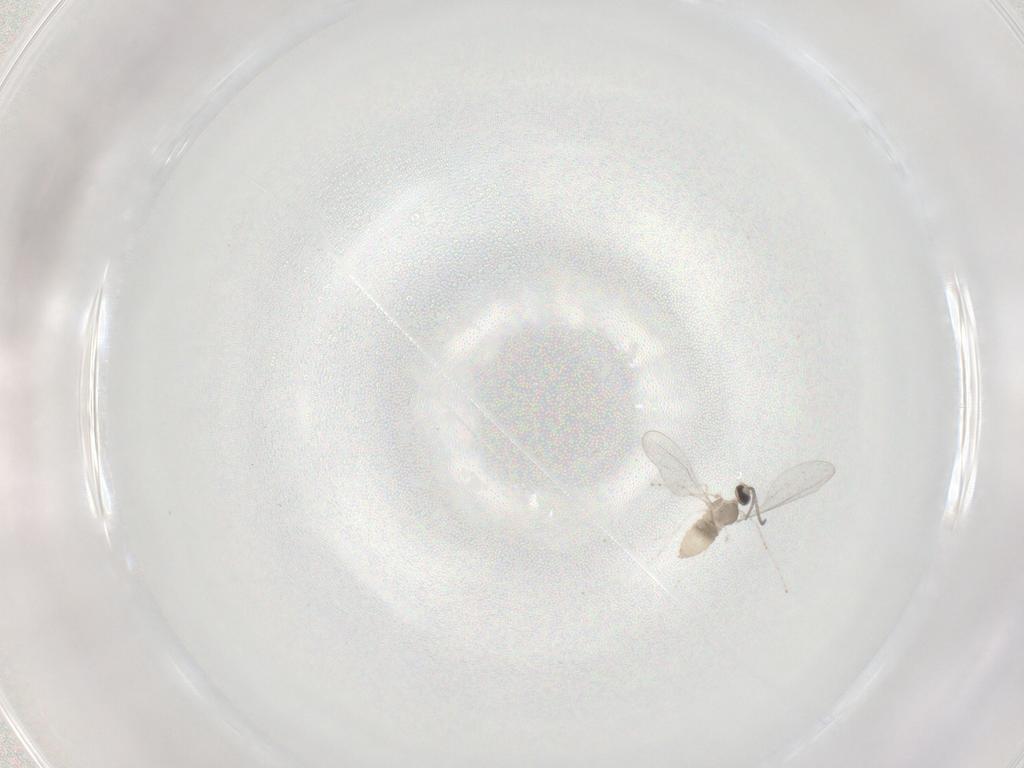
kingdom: Animalia
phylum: Arthropoda
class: Insecta
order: Diptera
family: Cecidomyiidae
